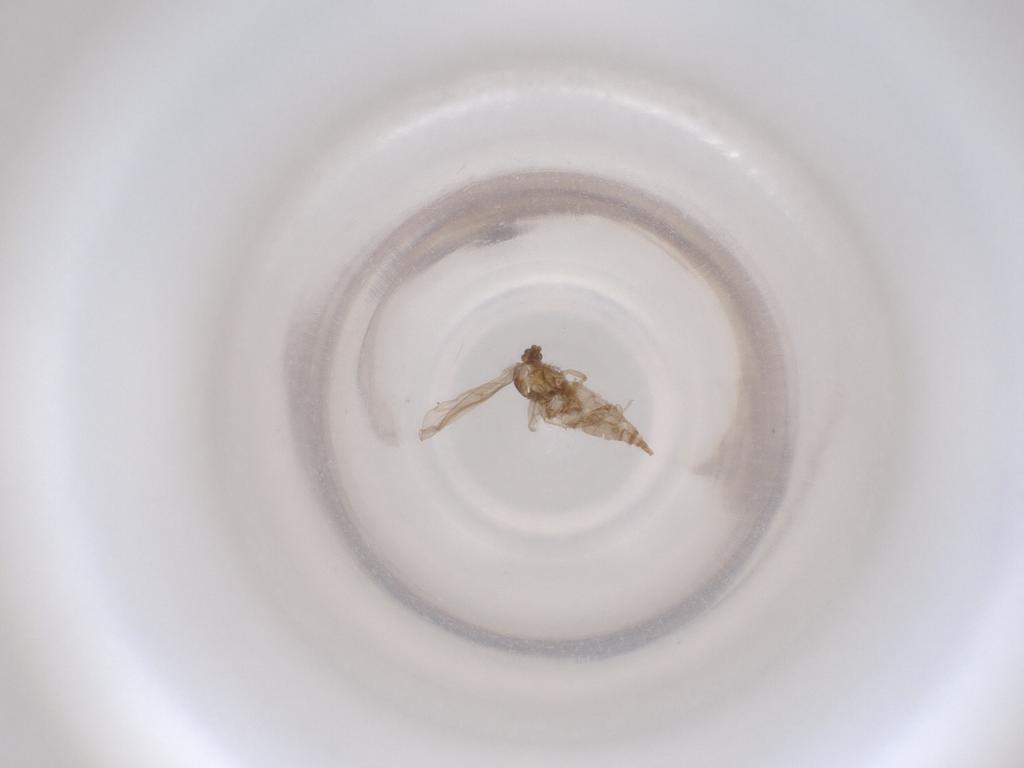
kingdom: Animalia
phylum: Arthropoda
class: Insecta
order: Diptera
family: Cecidomyiidae
